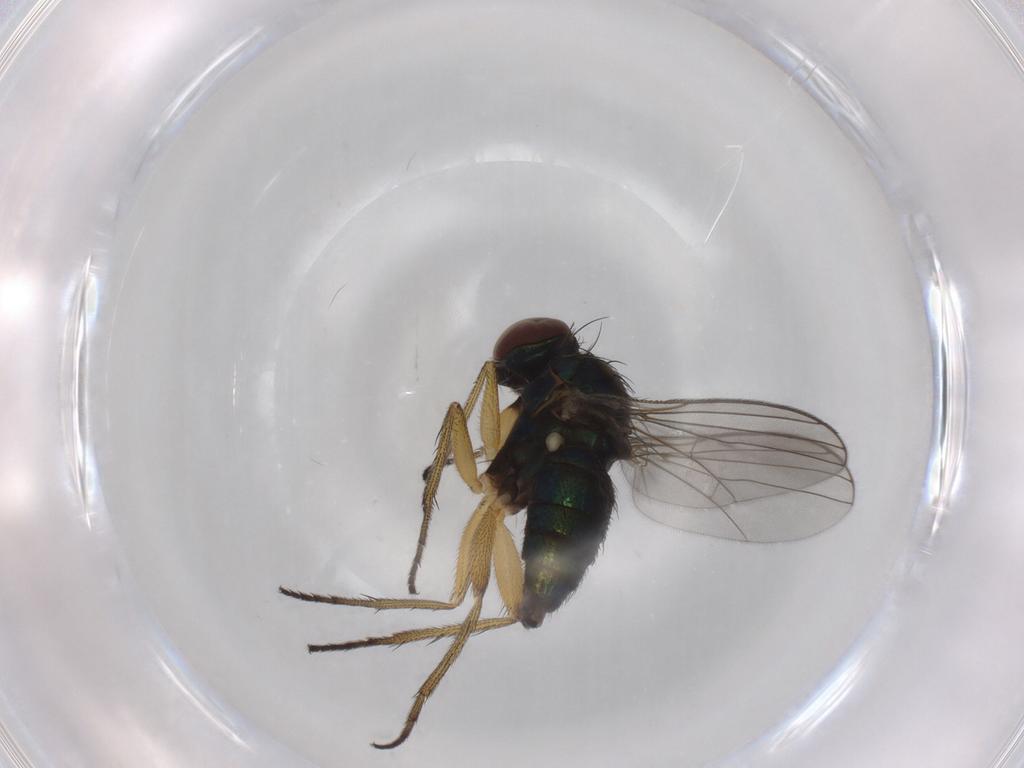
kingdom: Animalia
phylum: Arthropoda
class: Insecta
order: Diptera
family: Dolichopodidae
